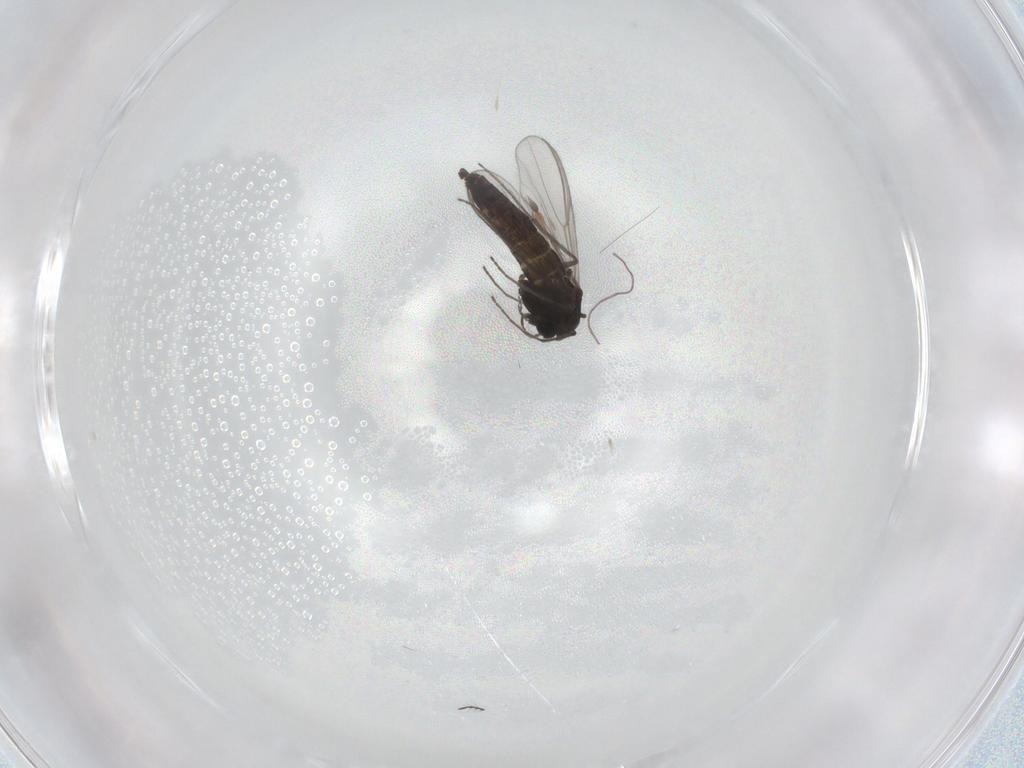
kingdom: Animalia
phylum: Arthropoda
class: Insecta
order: Diptera
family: Chironomidae
